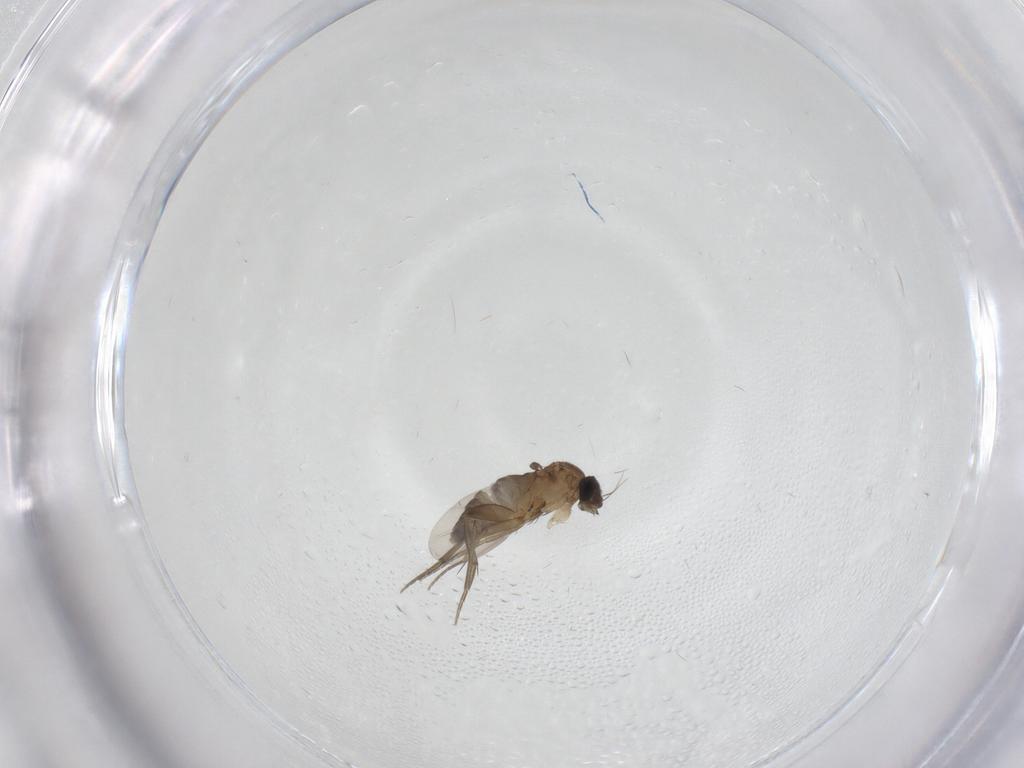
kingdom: Animalia
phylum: Arthropoda
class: Insecta
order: Diptera
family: Phoridae
